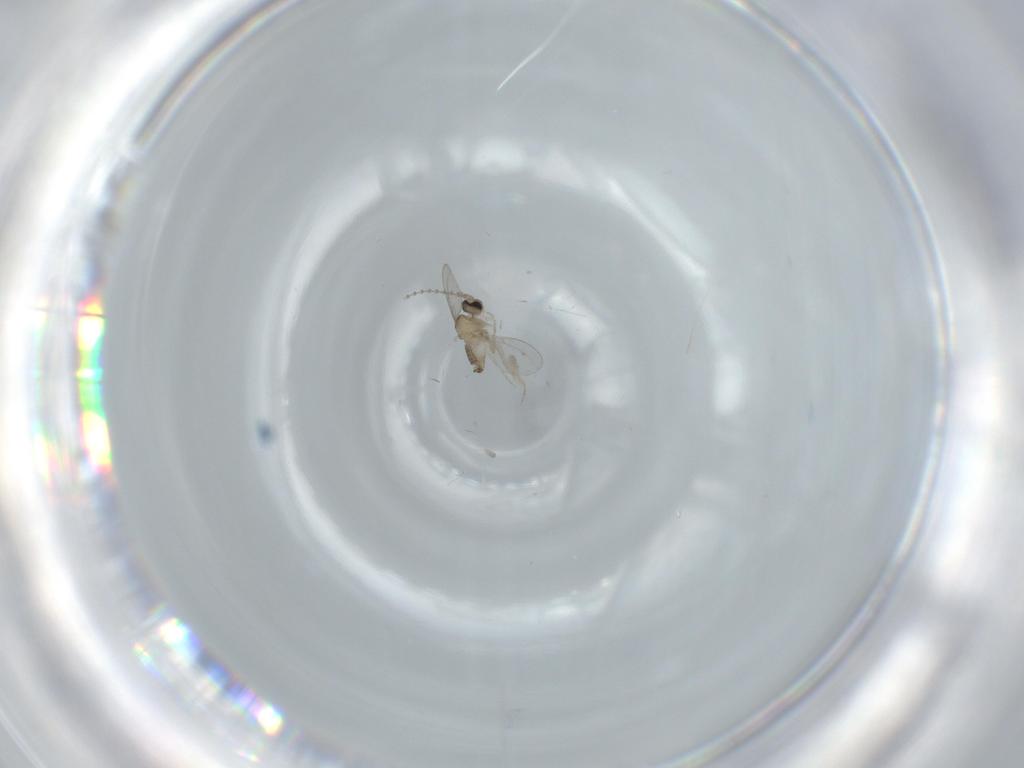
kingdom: Animalia
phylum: Arthropoda
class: Insecta
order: Diptera
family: Cecidomyiidae
